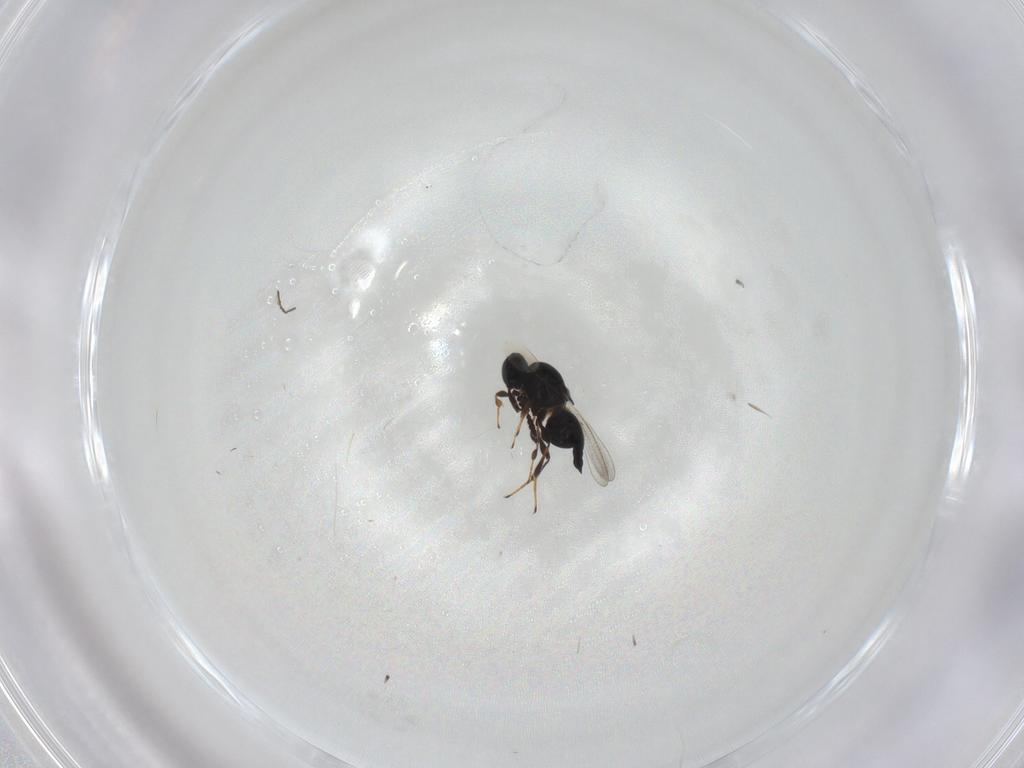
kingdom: Animalia
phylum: Arthropoda
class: Insecta
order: Hymenoptera
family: Platygastridae
